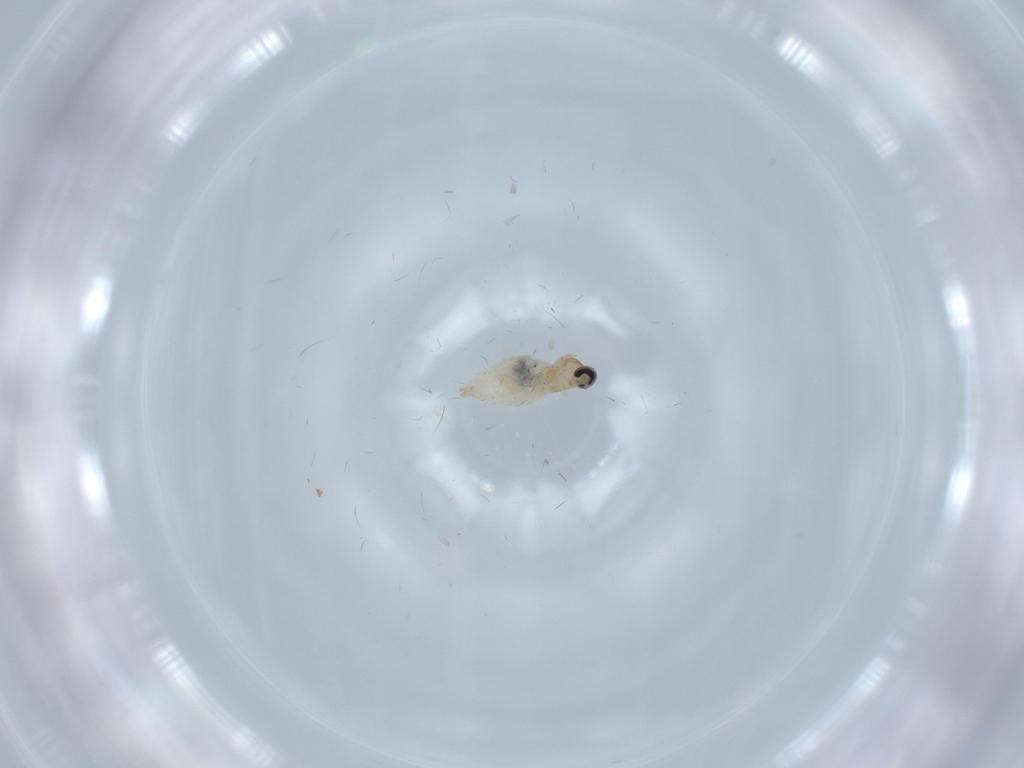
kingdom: Animalia
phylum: Arthropoda
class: Insecta
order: Diptera
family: Cecidomyiidae
